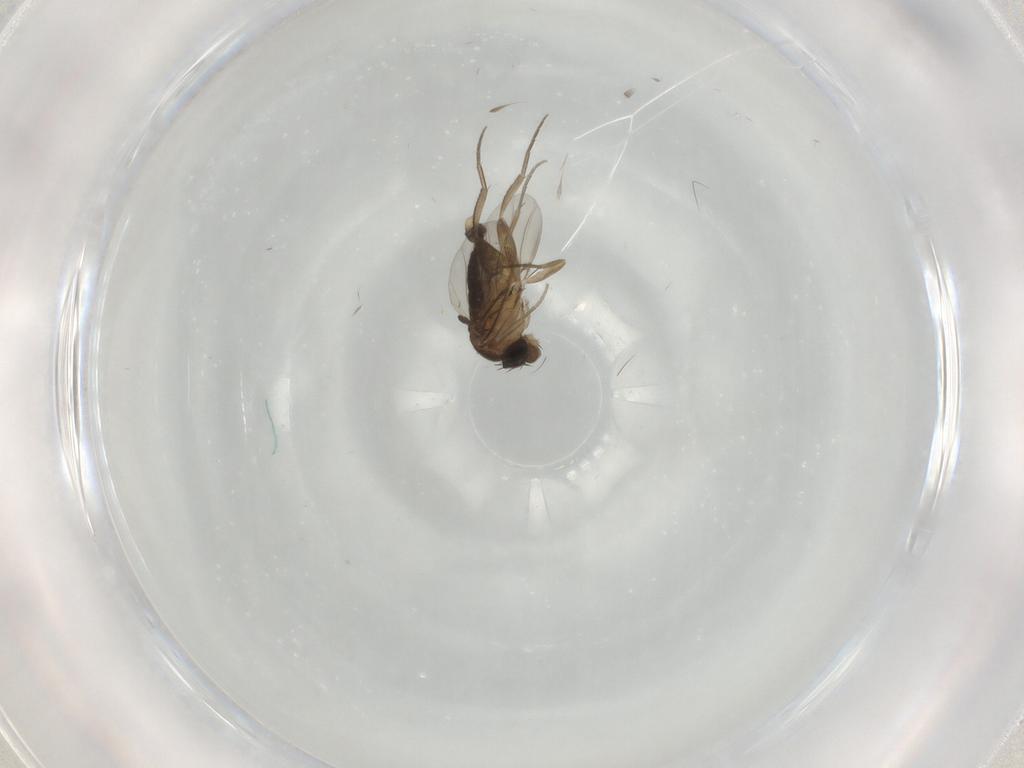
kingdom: Animalia
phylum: Arthropoda
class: Insecta
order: Diptera
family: Phoridae
